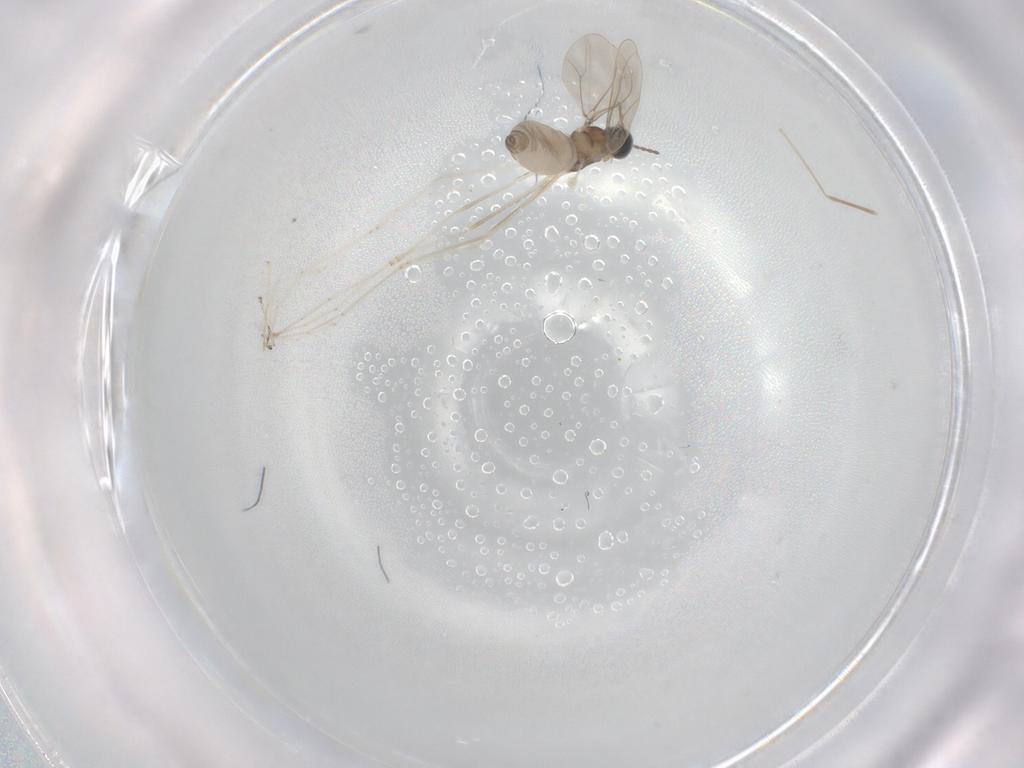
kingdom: Animalia
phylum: Arthropoda
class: Insecta
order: Diptera
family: Cecidomyiidae
